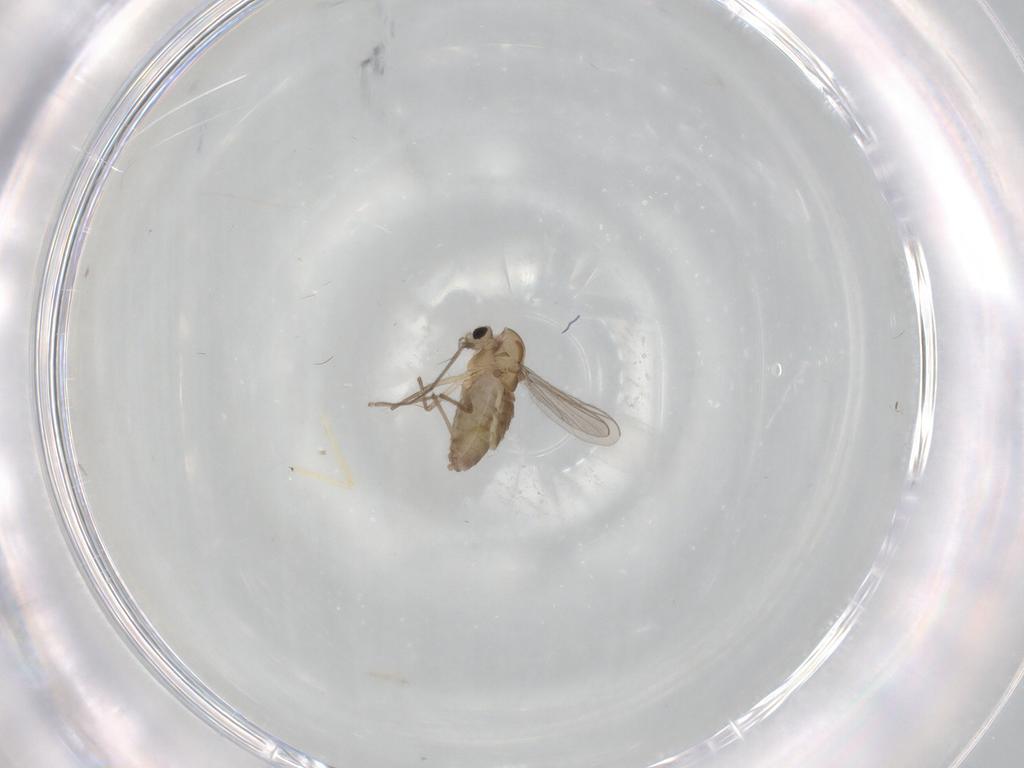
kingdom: Animalia
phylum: Arthropoda
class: Insecta
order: Diptera
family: Chironomidae
